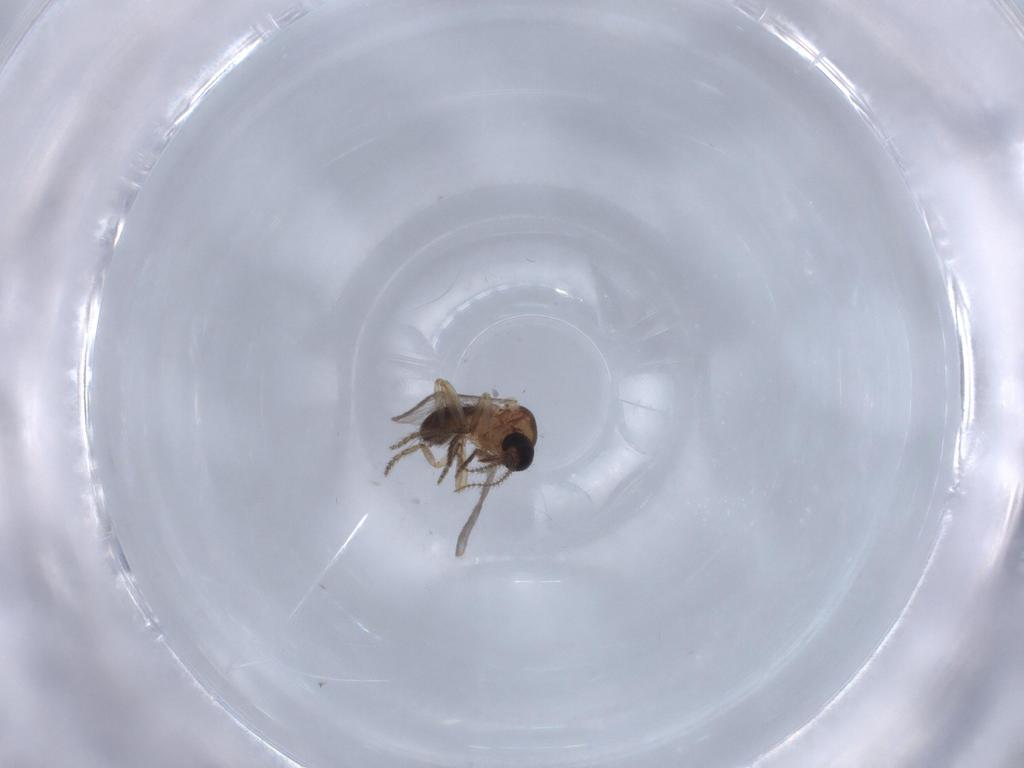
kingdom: Animalia
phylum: Arthropoda
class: Insecta
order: Diptera
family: Ceratopogonidae
